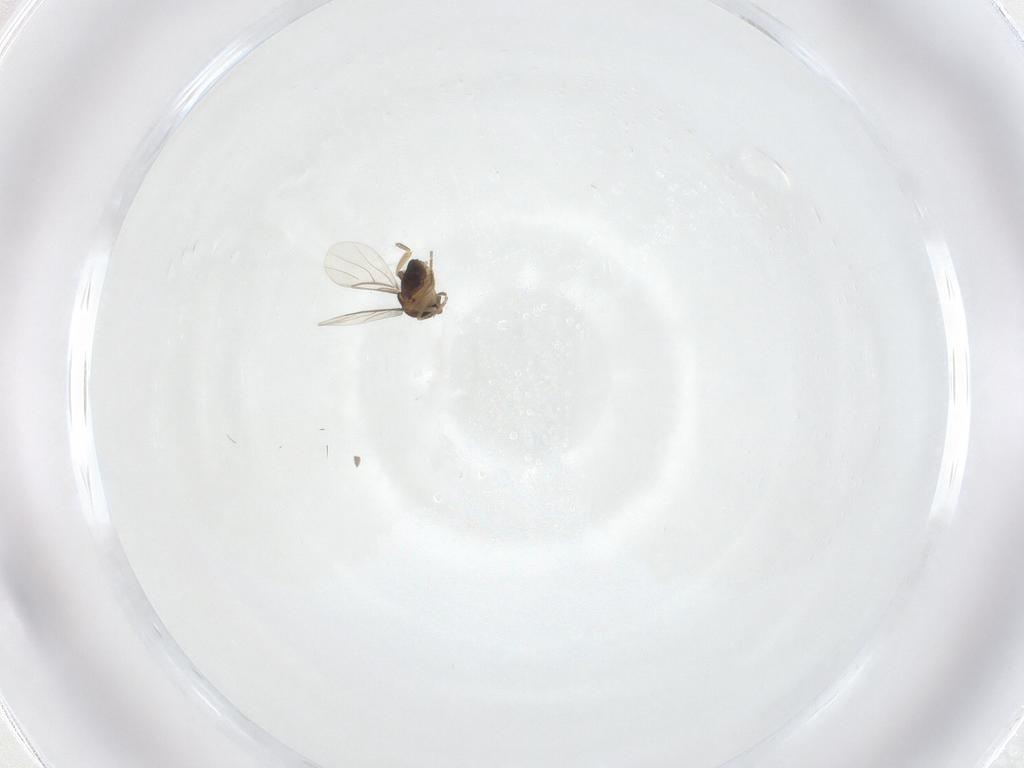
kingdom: Animalia
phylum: Arthropoda
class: Insecta
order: Diptera
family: Phoridae
